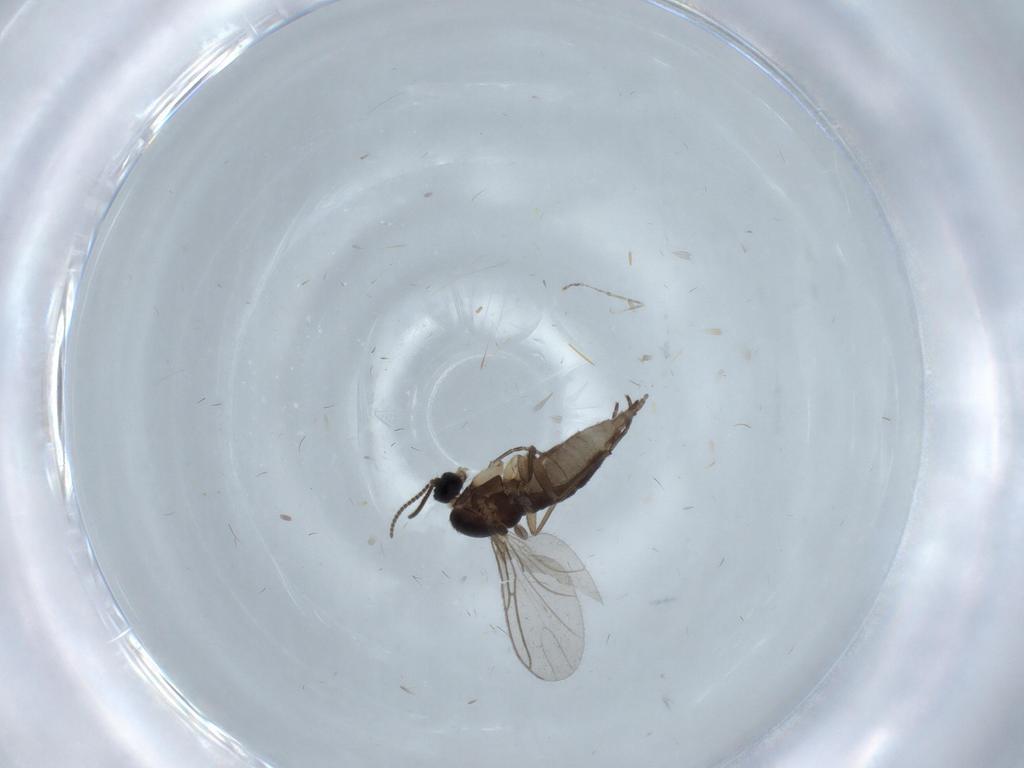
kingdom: Animalia
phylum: Arthropoda
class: Insecta
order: Diptera
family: Sciaridae
